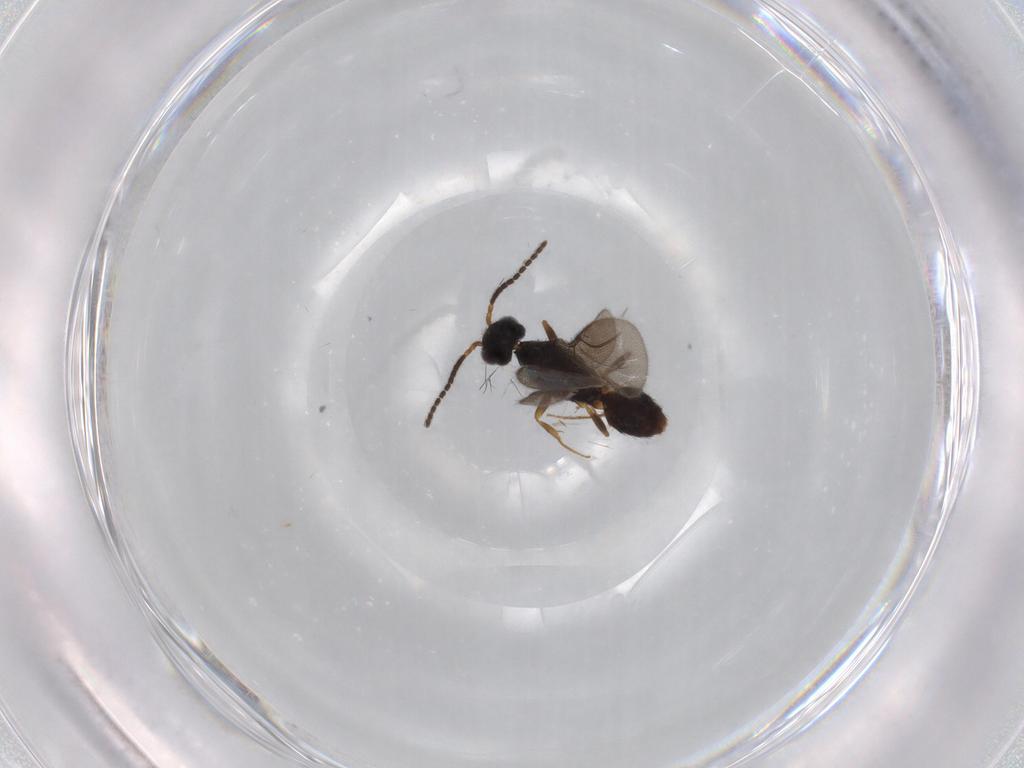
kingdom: Animalia
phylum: Arthropoda
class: Insecta
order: Hymenoptera
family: Bethylidae
